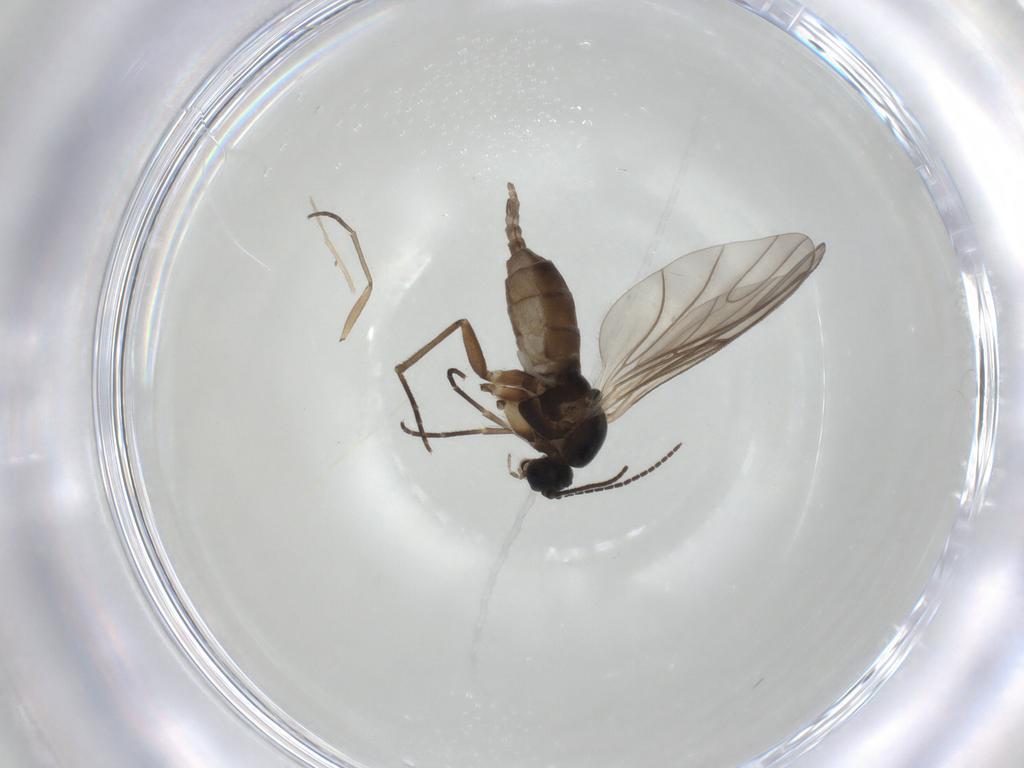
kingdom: Animalia
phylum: Arthropoda
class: Insecta
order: Diptera
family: Sciaridae
